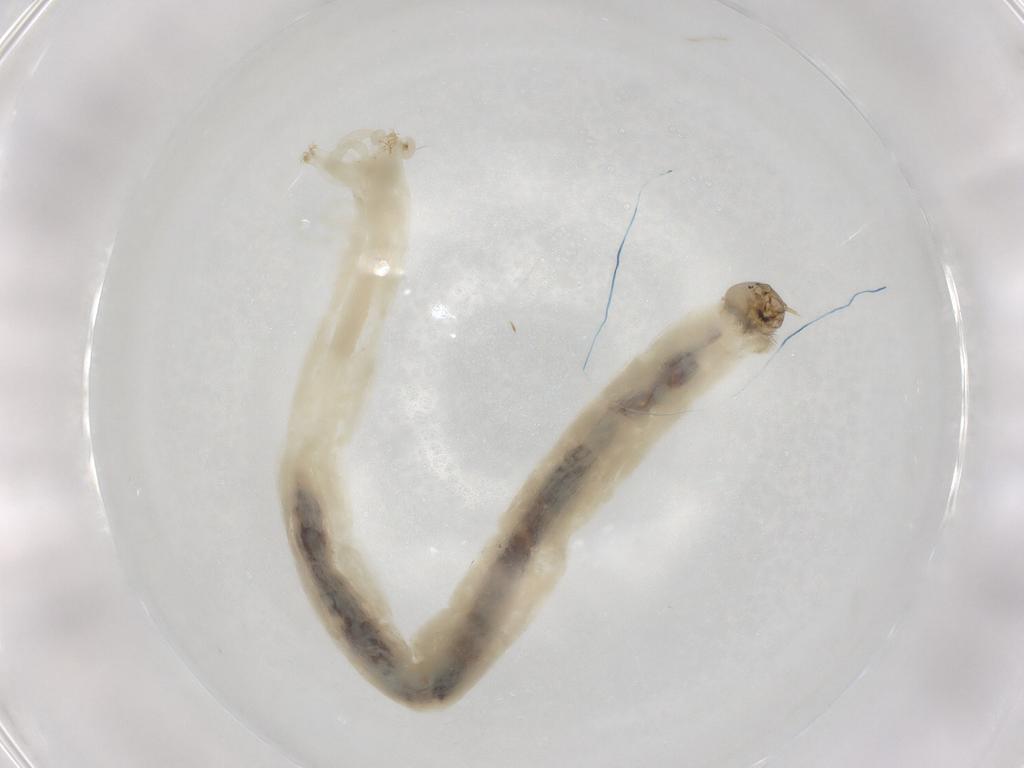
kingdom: Animalia
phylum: Arthropoda
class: Insecta
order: Diptera
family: Chironomidae
